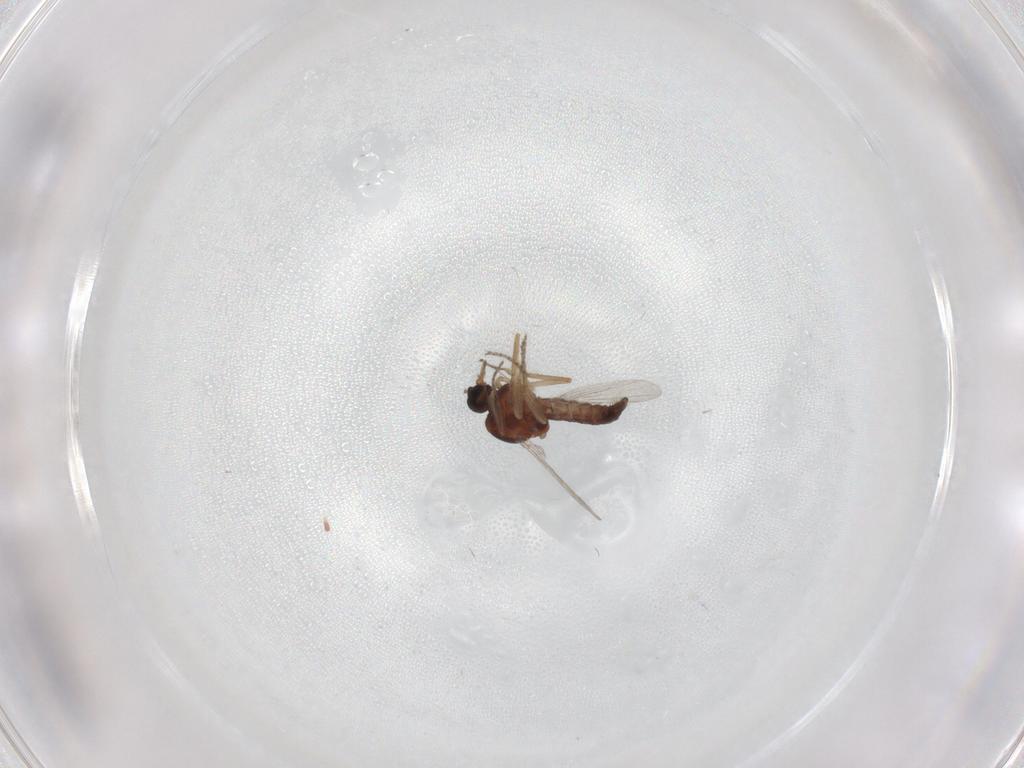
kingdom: Animalia
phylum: Arthropoda
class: Insecta
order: Diptera
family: Ceratopogonidae
